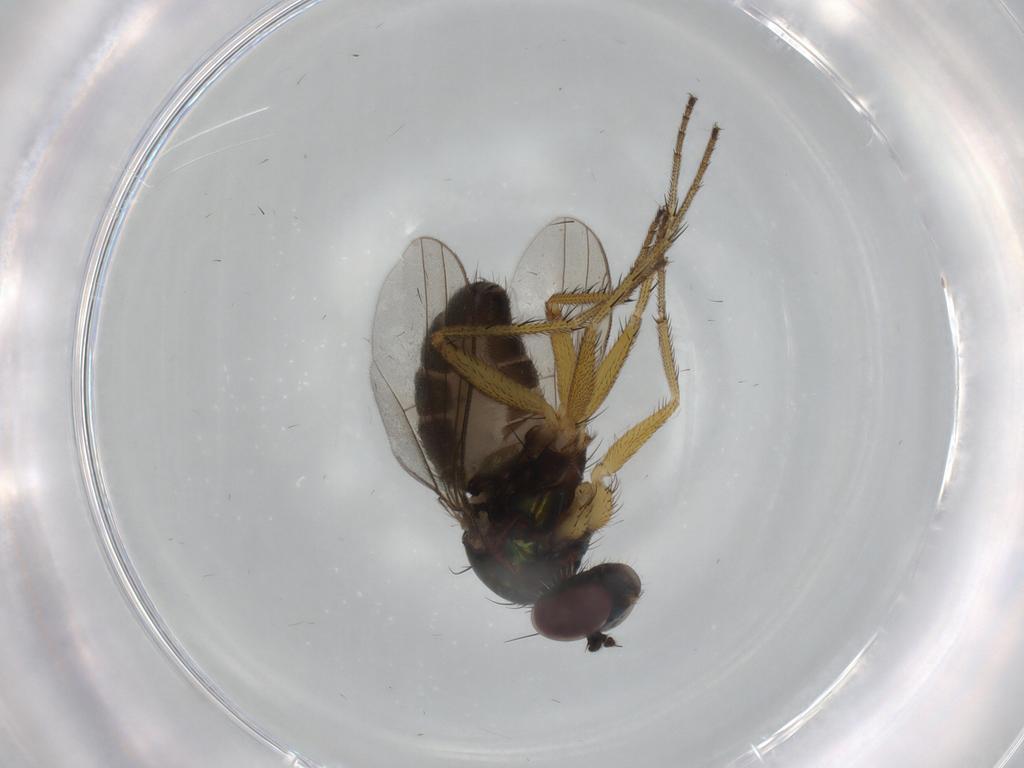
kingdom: Animalia
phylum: Arthropoda
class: Insecta
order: Diptera
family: Dolichopodidae
